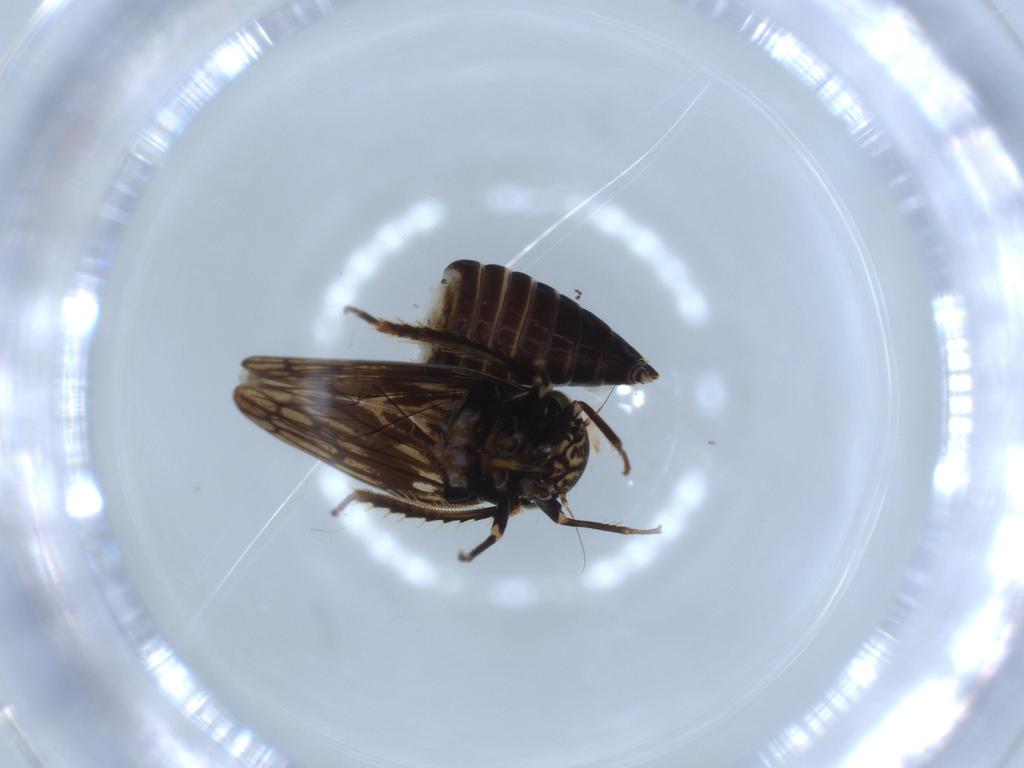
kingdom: Animalia
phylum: Arthropoda
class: Insecta
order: Hemiptera
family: Cicadellidae
